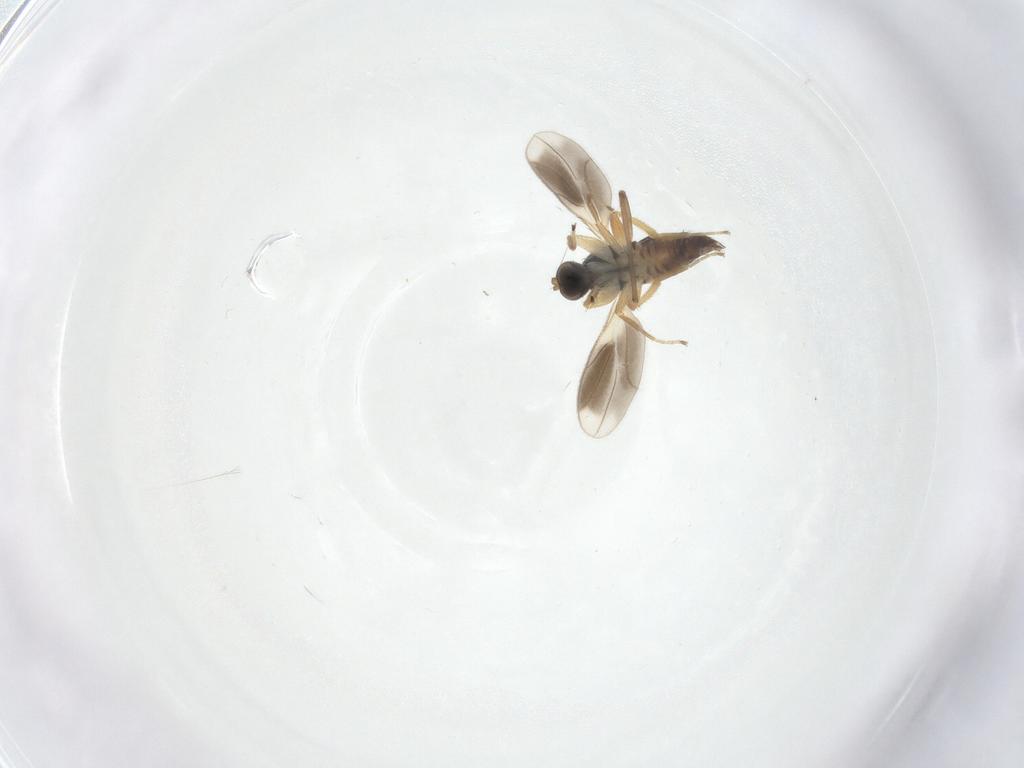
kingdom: Animalia
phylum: Arthropoda
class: Insecta
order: Diptera
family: Hybotidae
